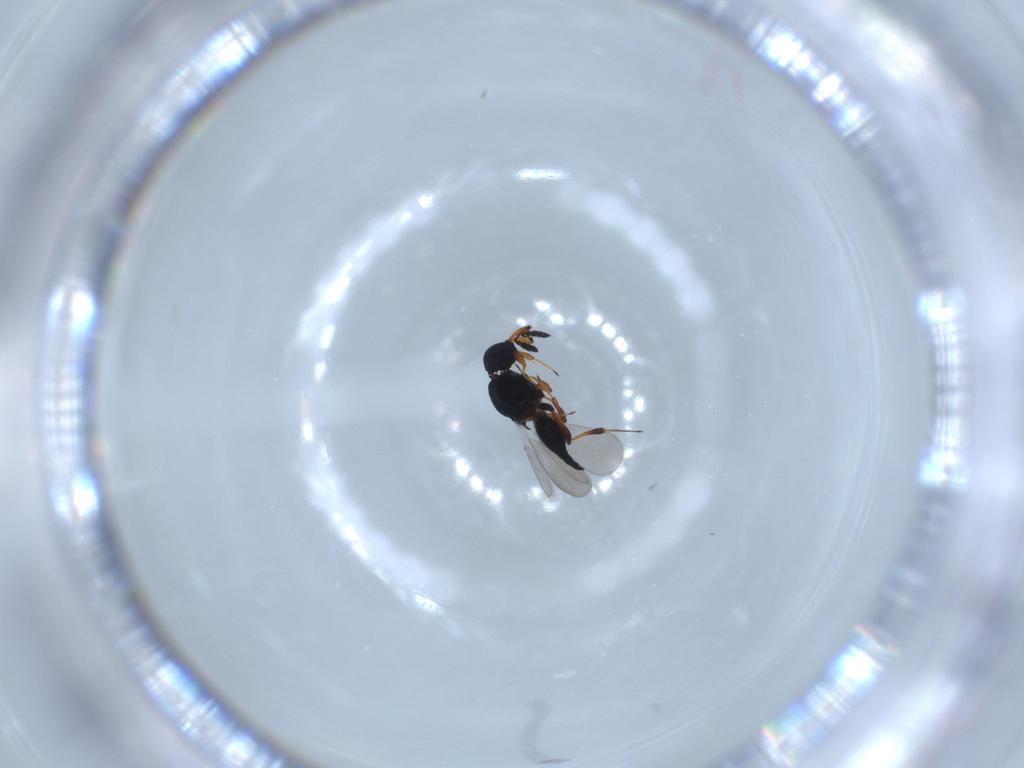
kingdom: Animalia
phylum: Arthropoda
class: Insecta
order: Hymenoptera
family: Platygastridae
